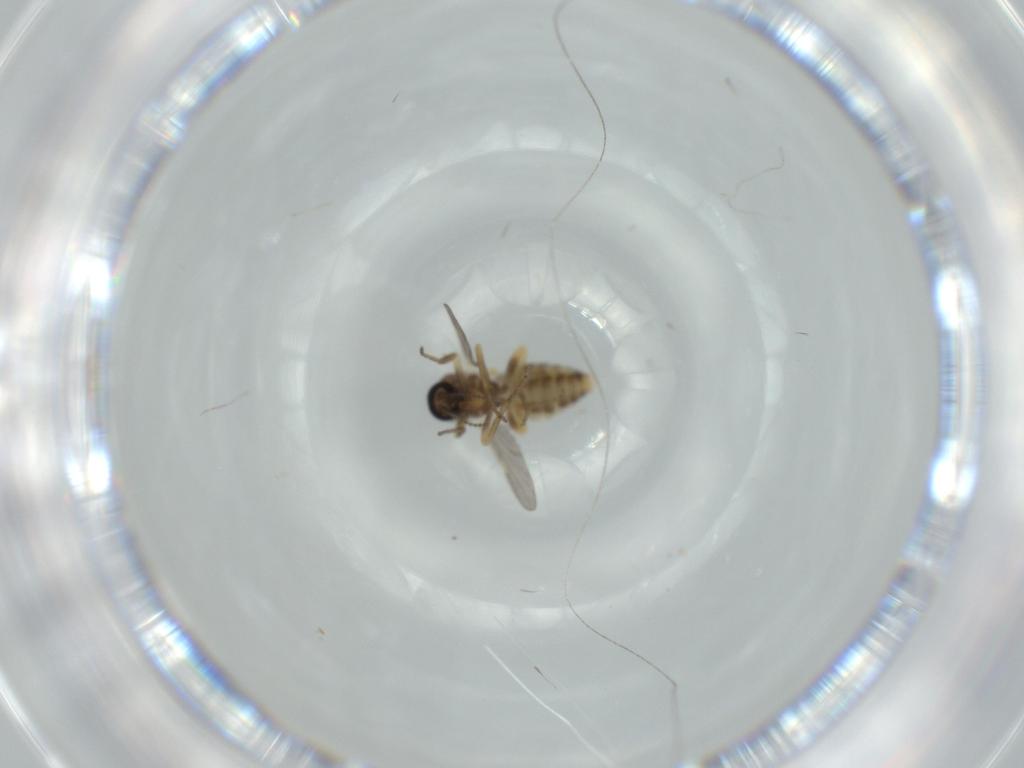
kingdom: Animalia
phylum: Arthropoda
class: Insecta
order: Diptera
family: Ceratopogonidae
